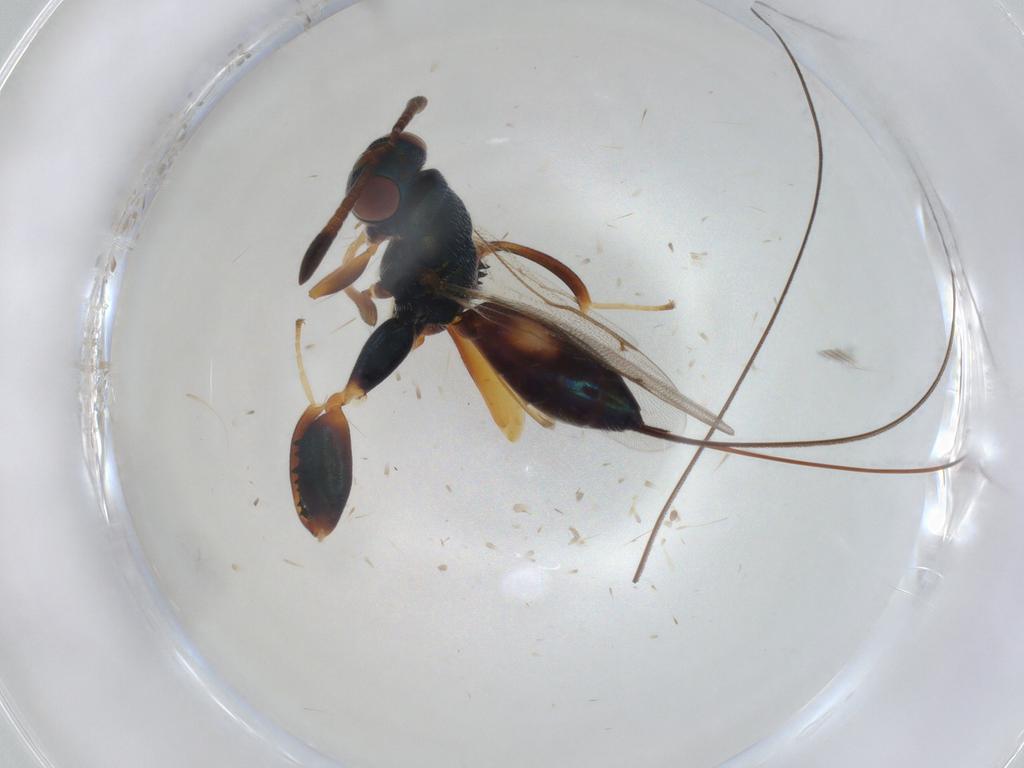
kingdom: Animalia
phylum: Arthropoda
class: Insecta
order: Hymenoptera
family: Torymidae
